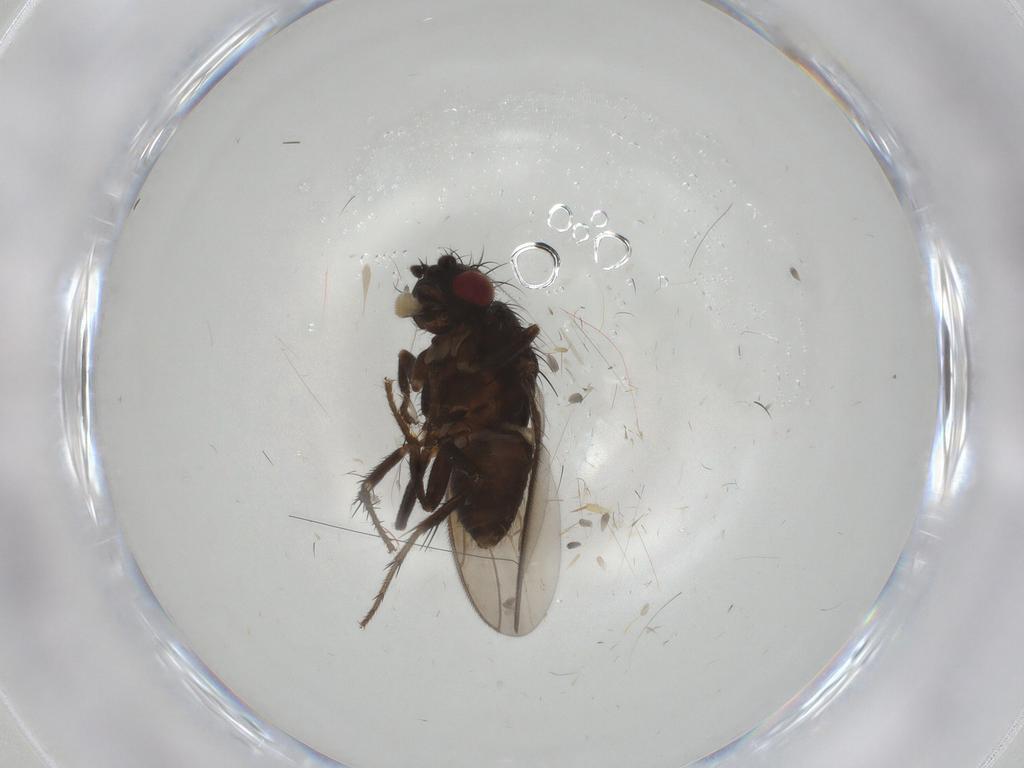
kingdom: Animalia
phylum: Arthropoda
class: Insecta
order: Diptera
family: Sphaeroceridae
